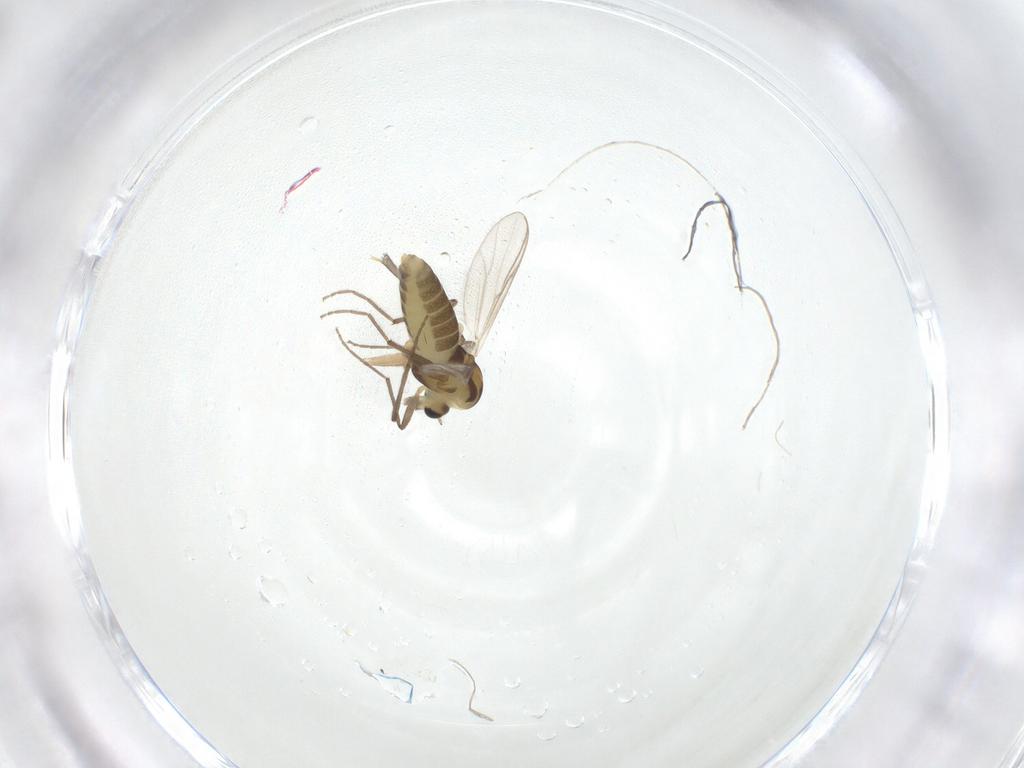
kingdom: Animalia
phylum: Arthropoda
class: Insecta
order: Diptera
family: Chironomidae
